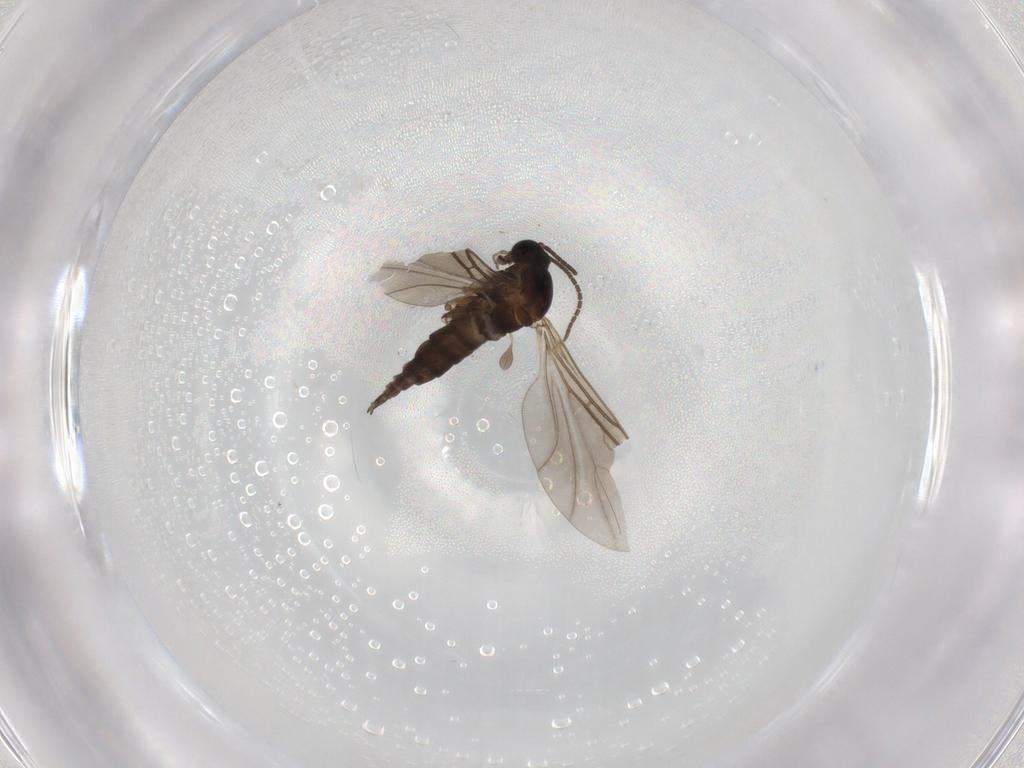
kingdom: Animalia
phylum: Arthropoda
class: Insecta
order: Diptera
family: Sciaridae
